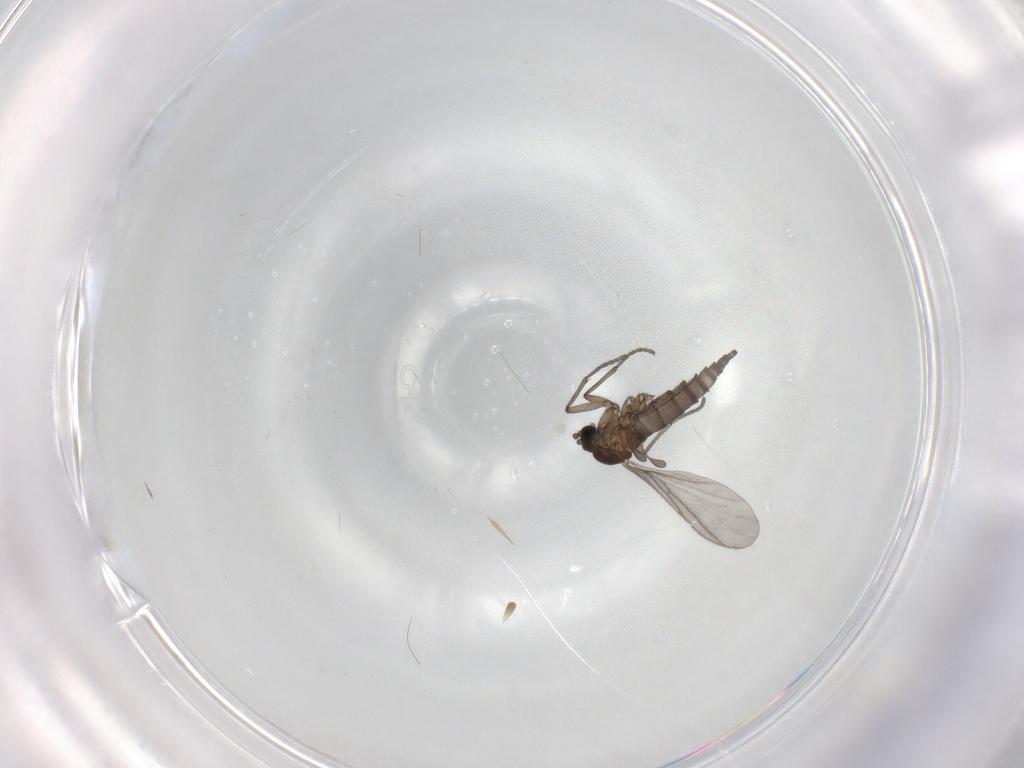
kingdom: Animalia
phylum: Arthropoda
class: Insecta
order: Diptera
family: Sciaridae
